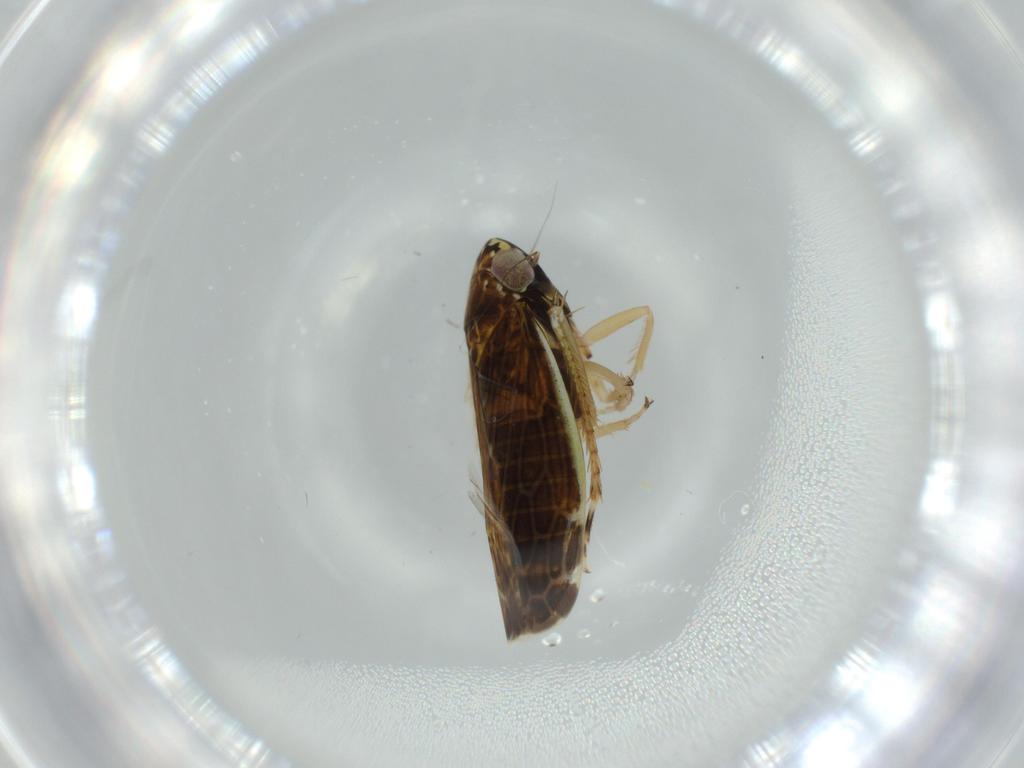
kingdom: Animalia
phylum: Arthropoda
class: Insecta
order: Hemiptera
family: Cicadellidae
